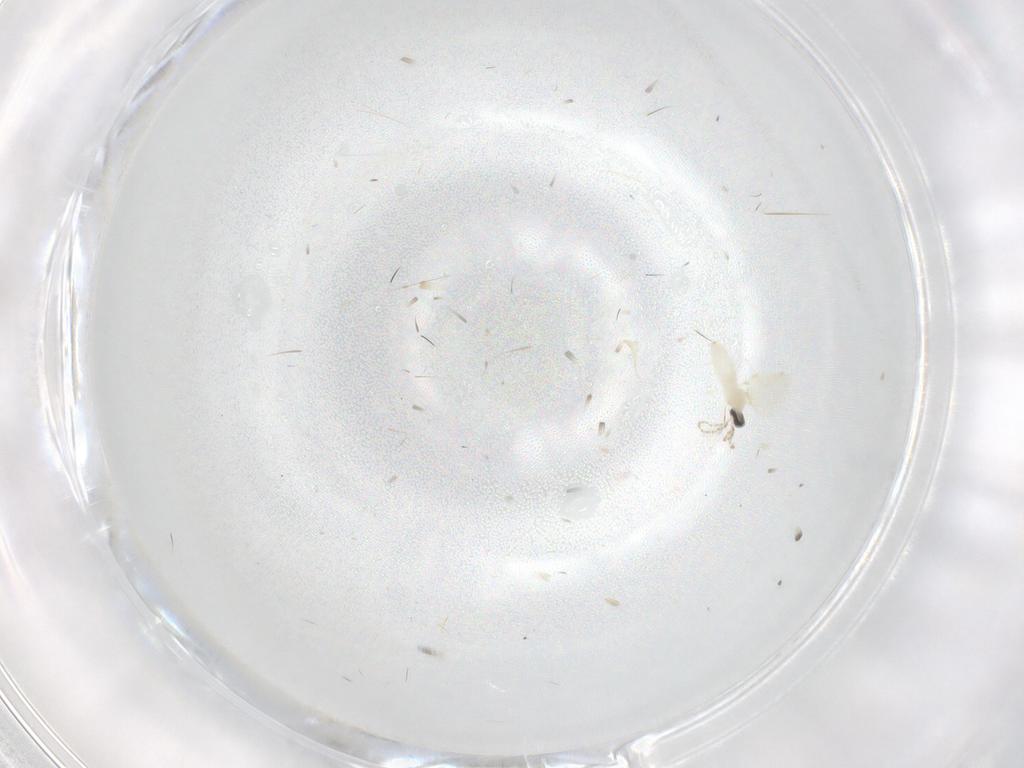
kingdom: Animalia
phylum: Arthropoda
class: Insecta
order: Diptera
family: Cecidomyiidae
